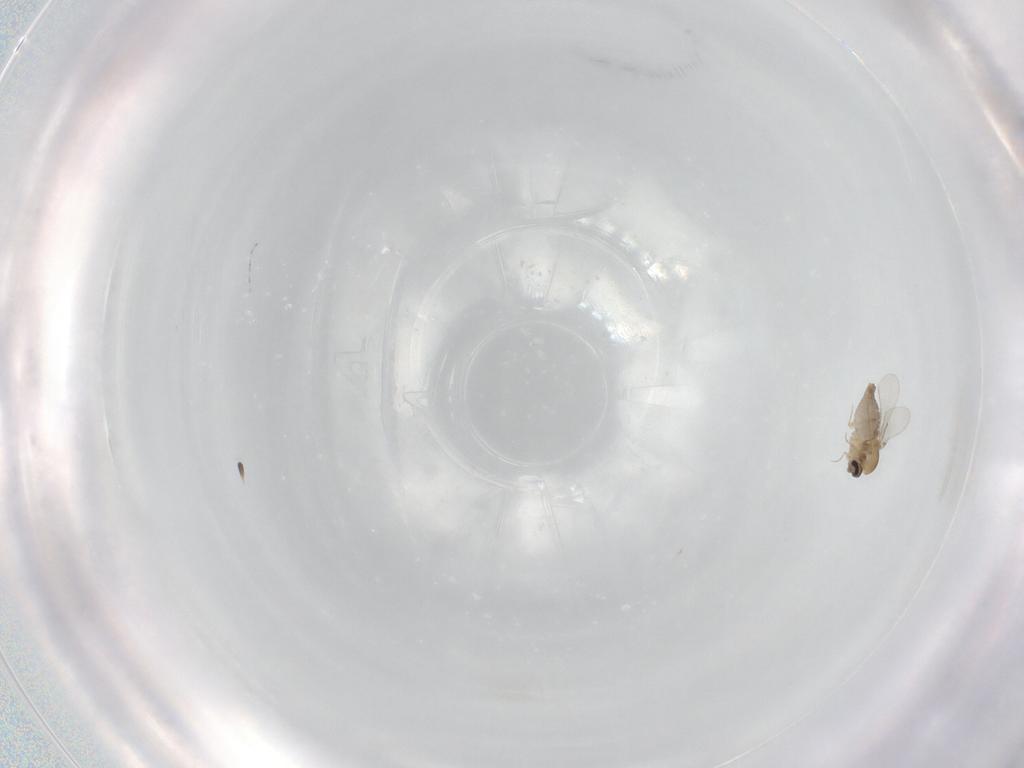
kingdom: Animalia
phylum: Arthropoda
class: Insecta
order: Diptera
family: Ceratopogonidae
